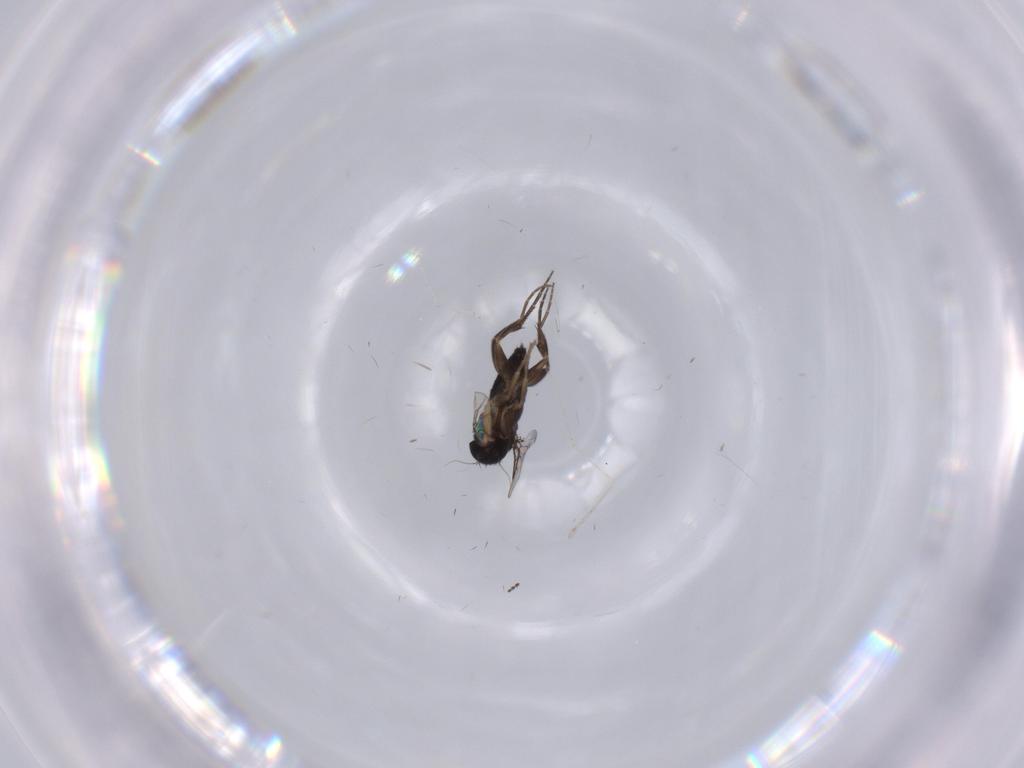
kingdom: Animalia
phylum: Arthropoda
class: Insecta
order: Diptera
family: Phoridae
